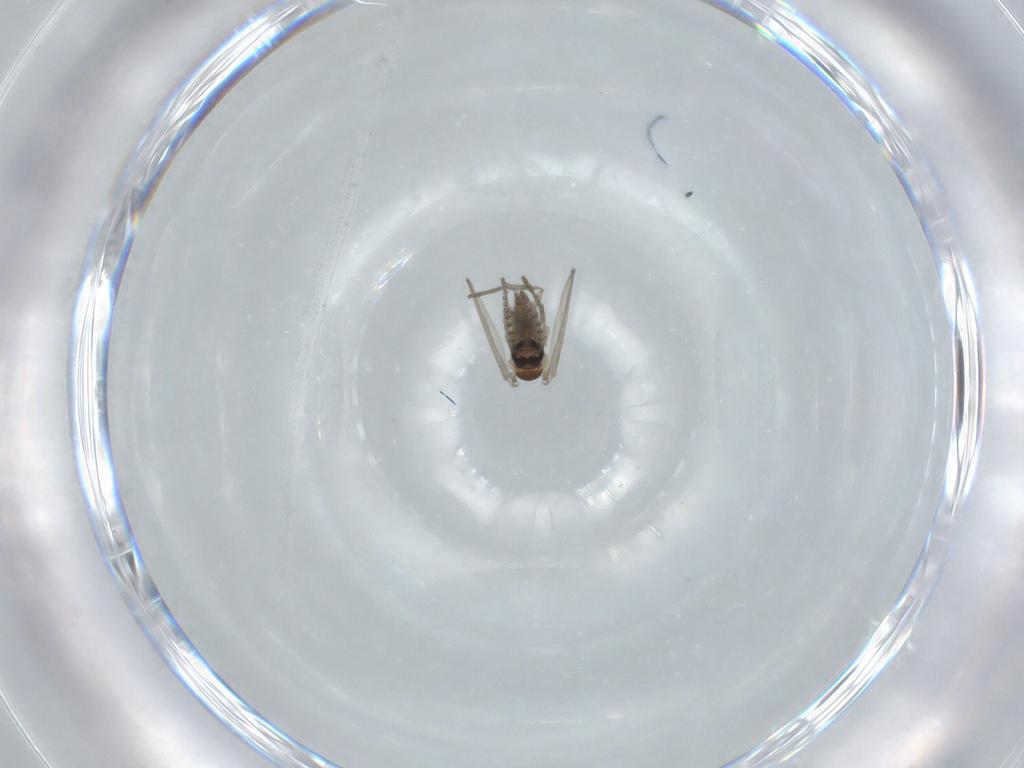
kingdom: Animalia
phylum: Arthropoda
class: Insecta
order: Diptera
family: Psychodidae
